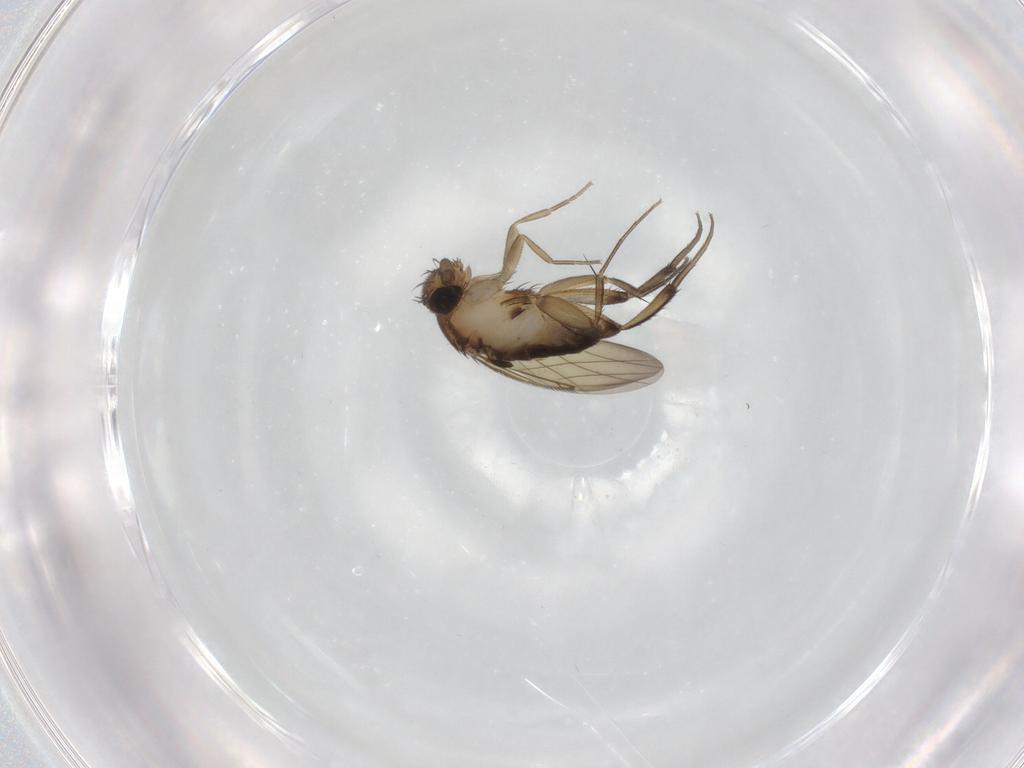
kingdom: Animalia
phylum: Arthropoda
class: Insecta
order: Diptera
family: Phoridae
